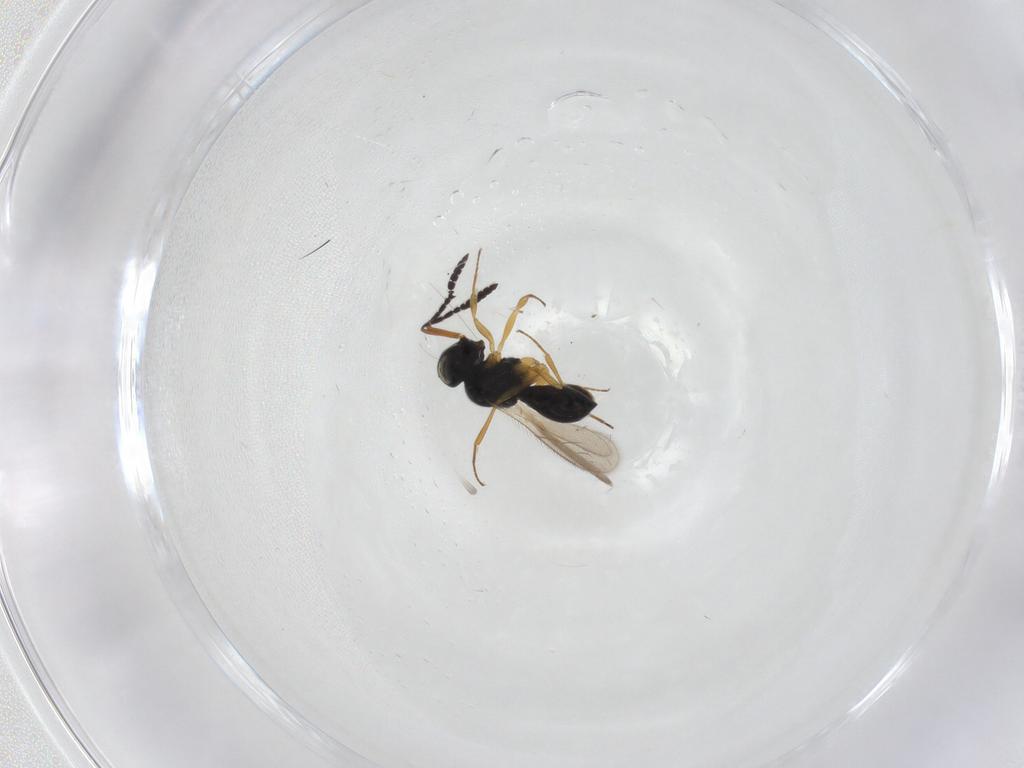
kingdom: Animalia
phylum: Arthropoda
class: Insecta
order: Hymenoptera
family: Scelionidae
